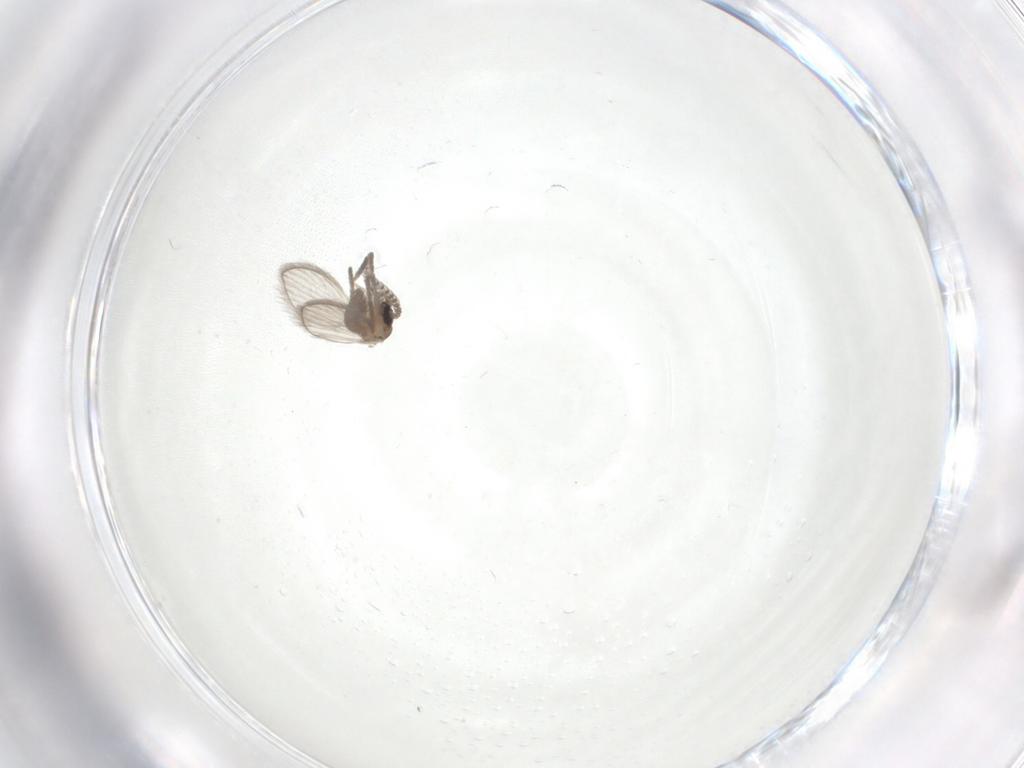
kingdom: Animalia
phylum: Arthropoda
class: Insecta
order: Diptera
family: Psychodidae
